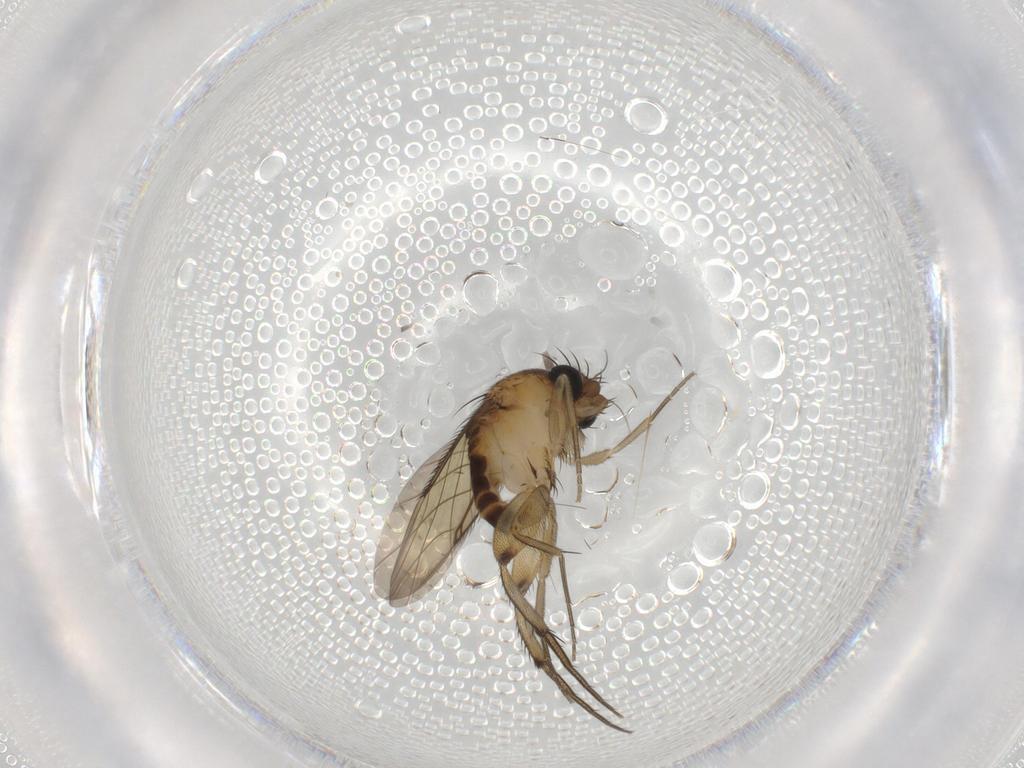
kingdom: Animalia
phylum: Arthropoda
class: Insecta
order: Diptera
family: Sciaridae
